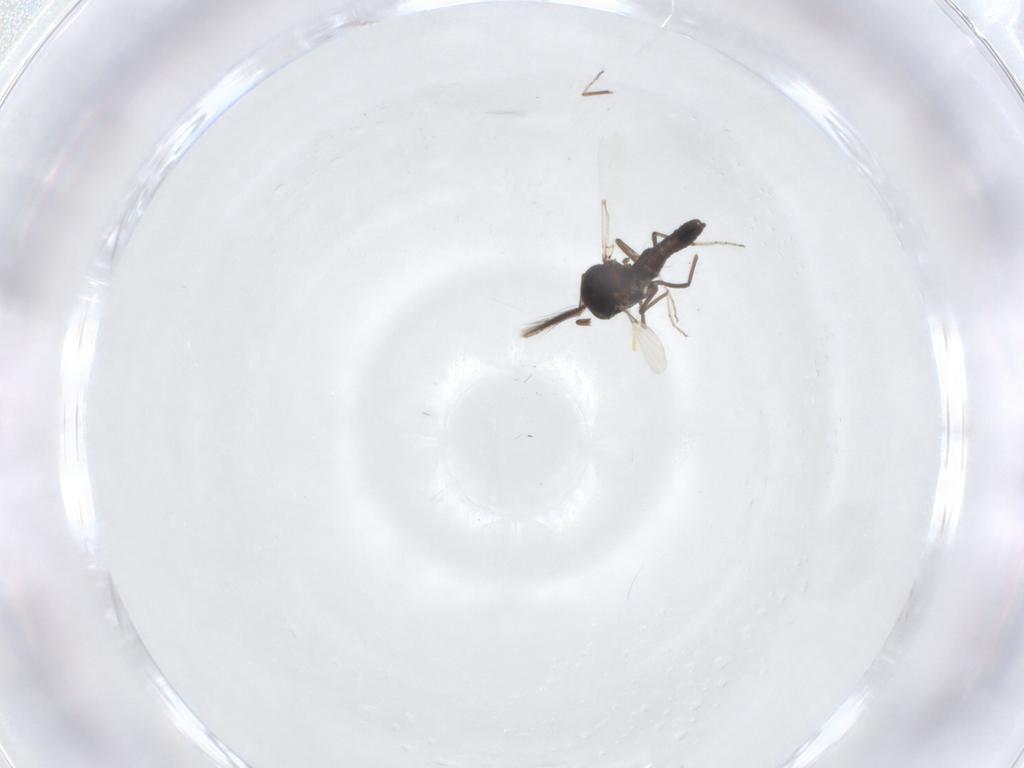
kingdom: Animalia
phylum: Arthropoda
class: Insecta
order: Diptera
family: Ceratopogonidae
